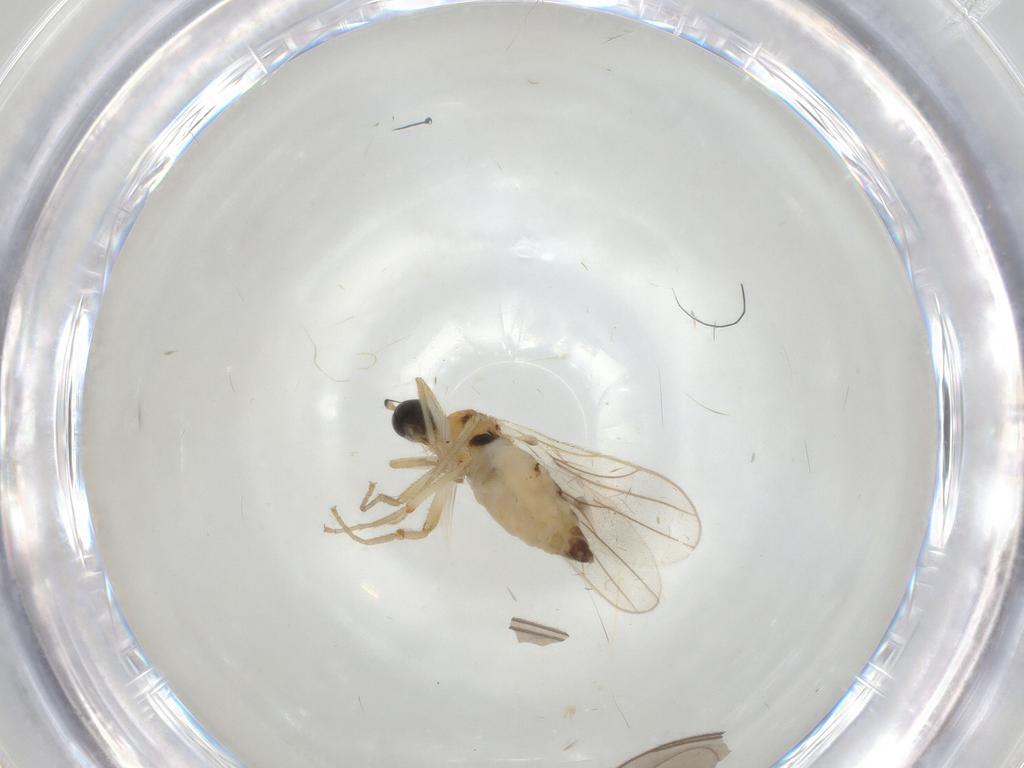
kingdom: Animalia
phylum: Arthropoda
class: Insecta
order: Diptera
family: Hybotidae
